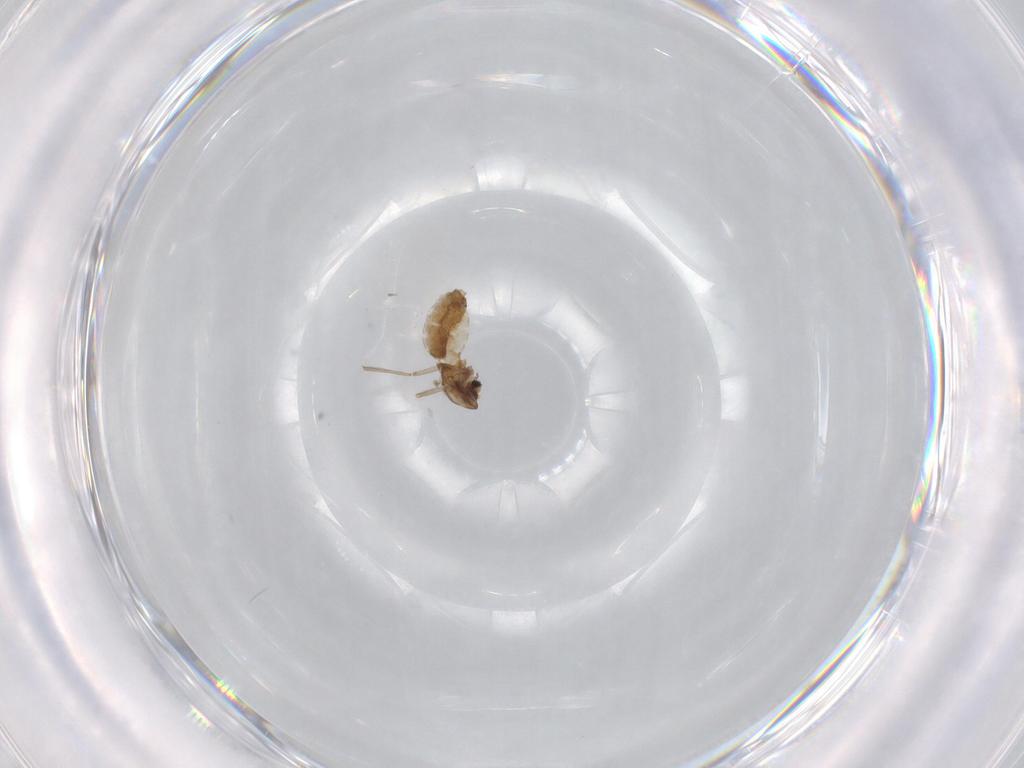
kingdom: Animalia
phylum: Arthropoda
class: Insecta
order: Diptera
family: Chironomidae
